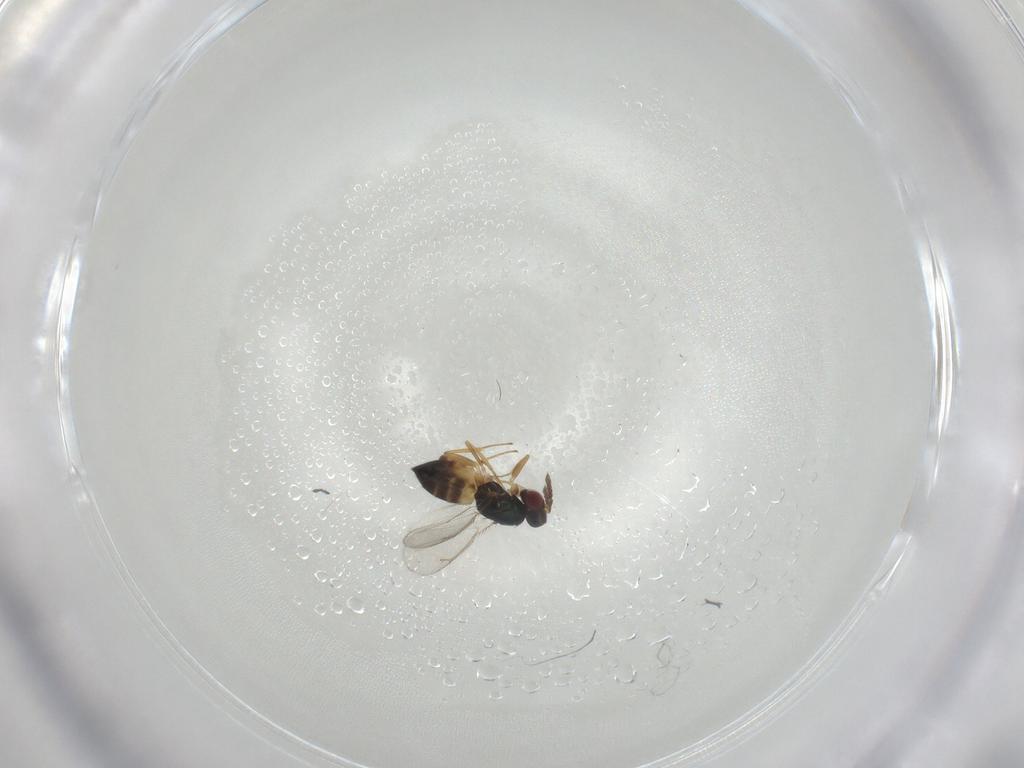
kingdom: Animalia
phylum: Arthropoda
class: Insecta
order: Hymenoptera
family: Eulophidae
